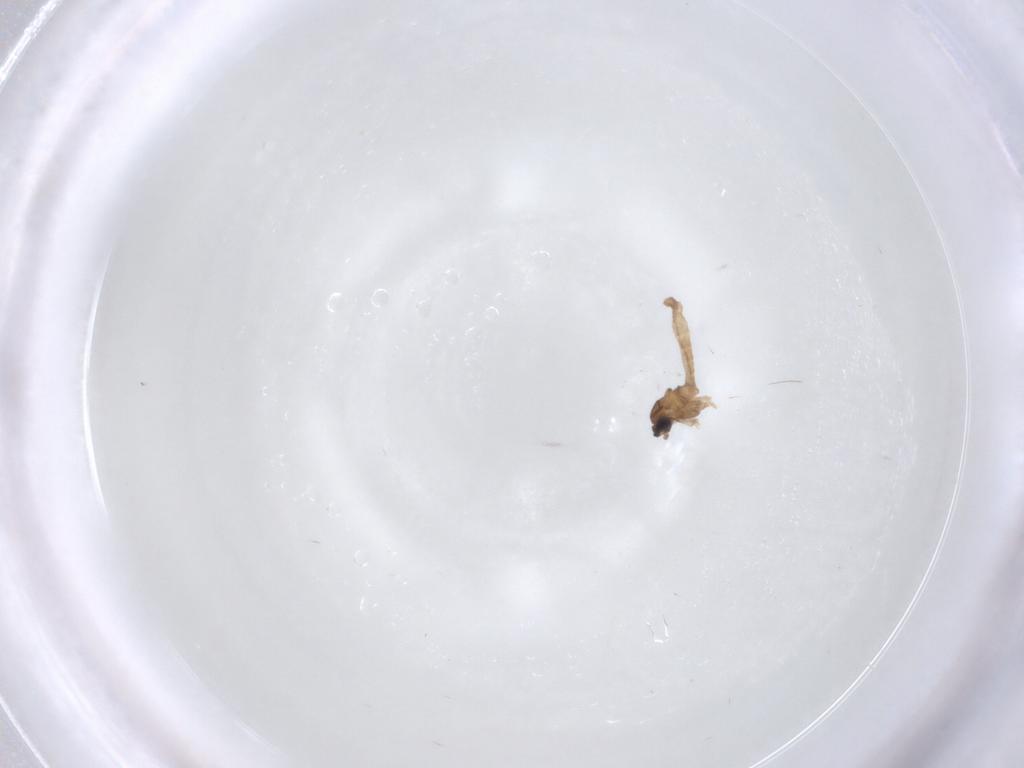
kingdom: Animalia
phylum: Arthropoda
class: Insecta
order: Diptera
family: Cecidomyiidae
